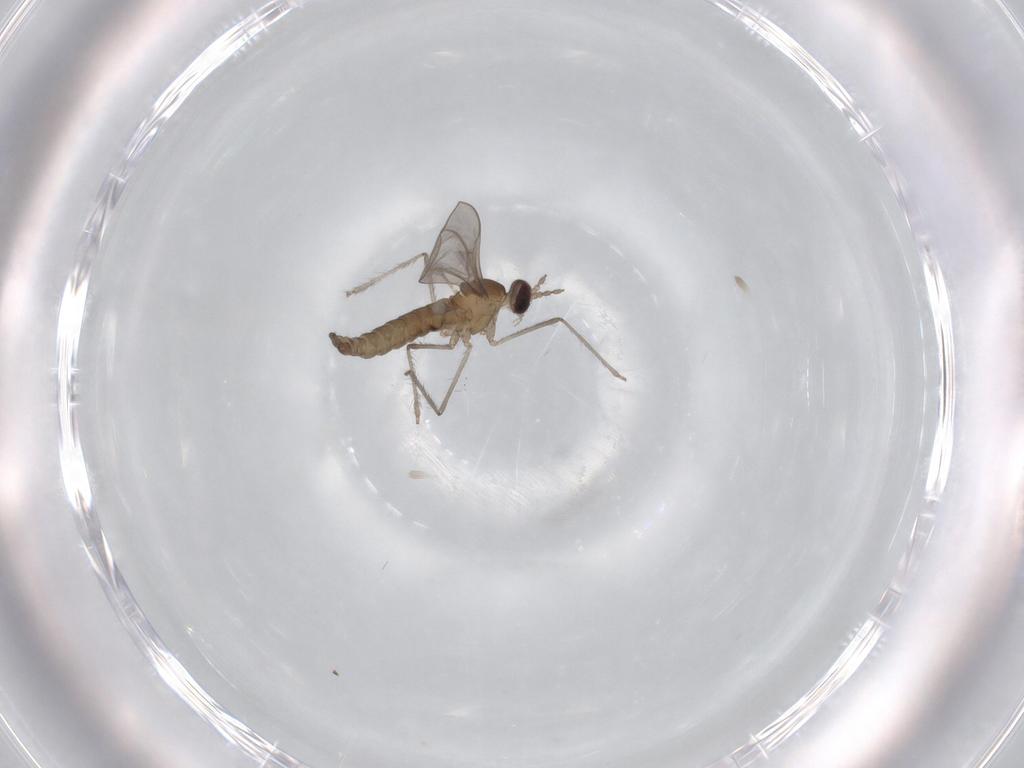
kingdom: Animalia
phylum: Arthropoda
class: Insecta
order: Diptera
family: Cecidomyiidae
